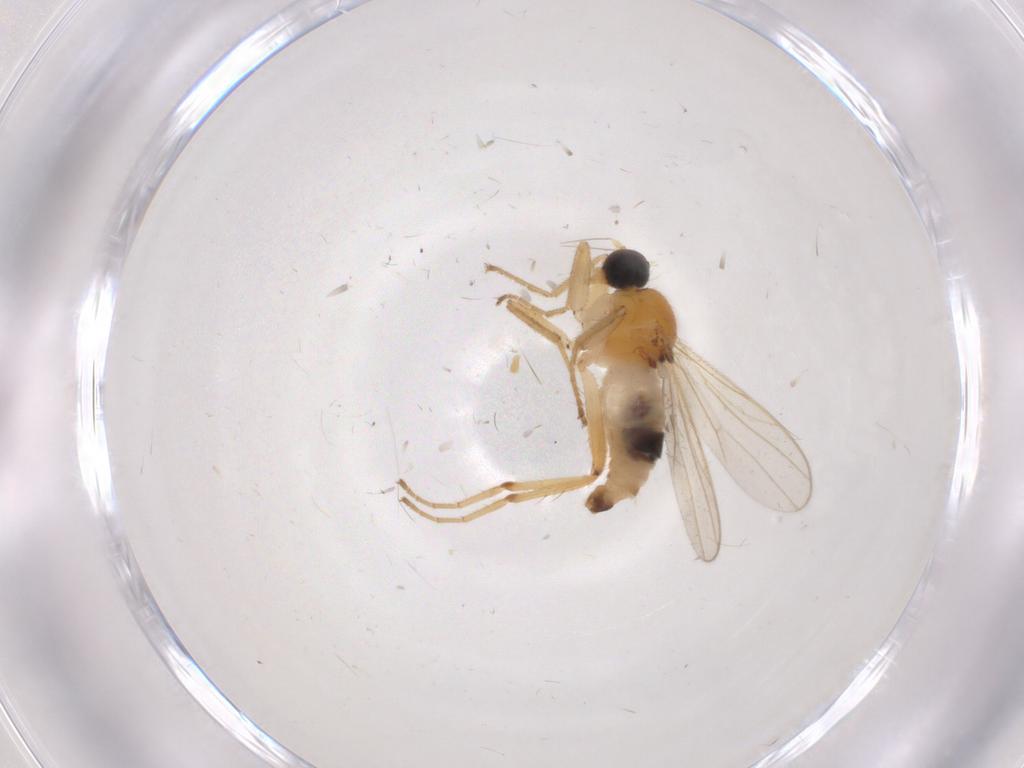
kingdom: Animalia
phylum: Arthropoda
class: Insecta
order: Diptera
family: Hybotidae
